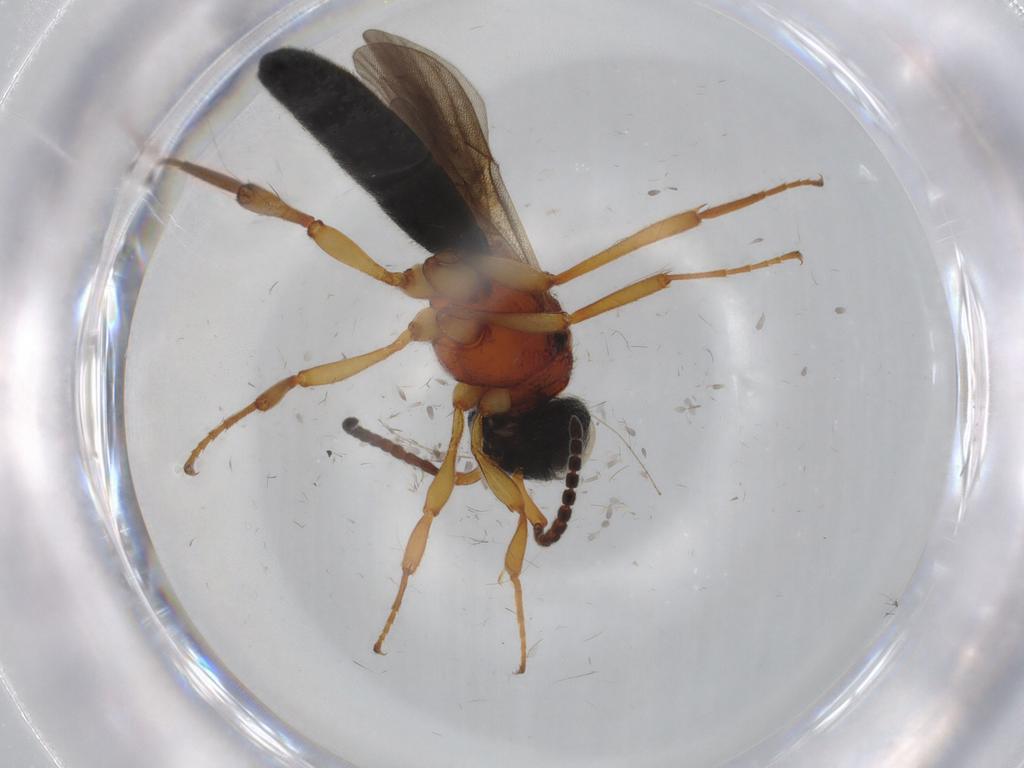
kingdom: Animalia
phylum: Arthropoda
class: Insecta
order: Hymenoptera
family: Scelionidae
